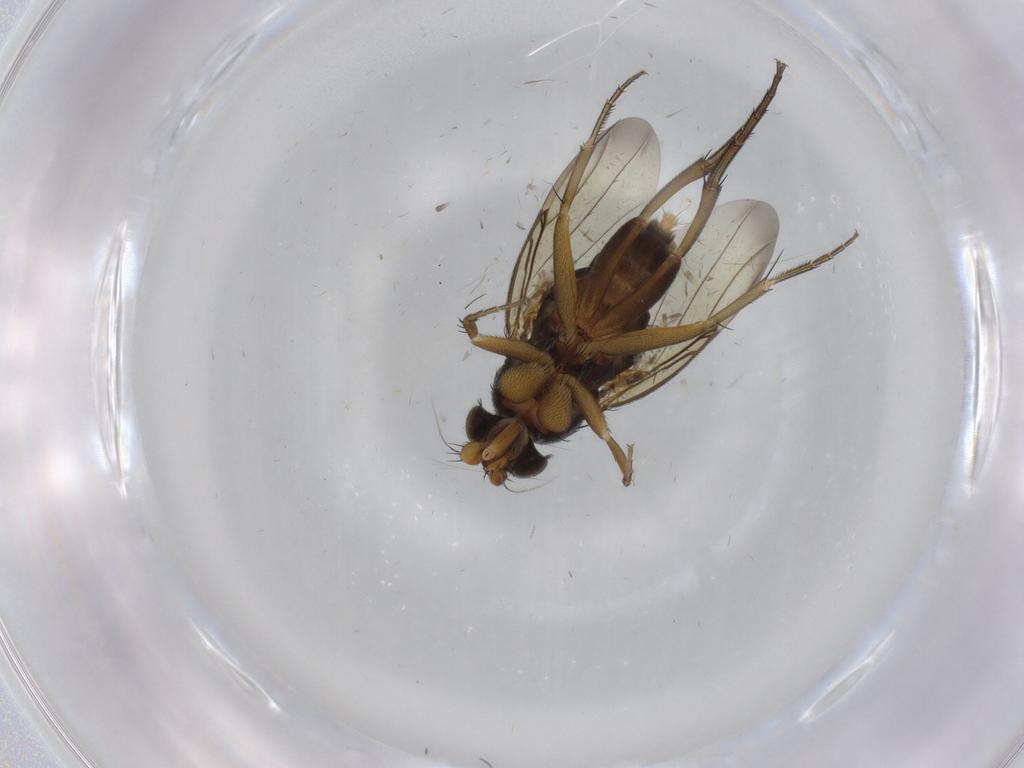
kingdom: Animalia
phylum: Arthropoda
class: Insecta
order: Diptera
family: Phoridae
